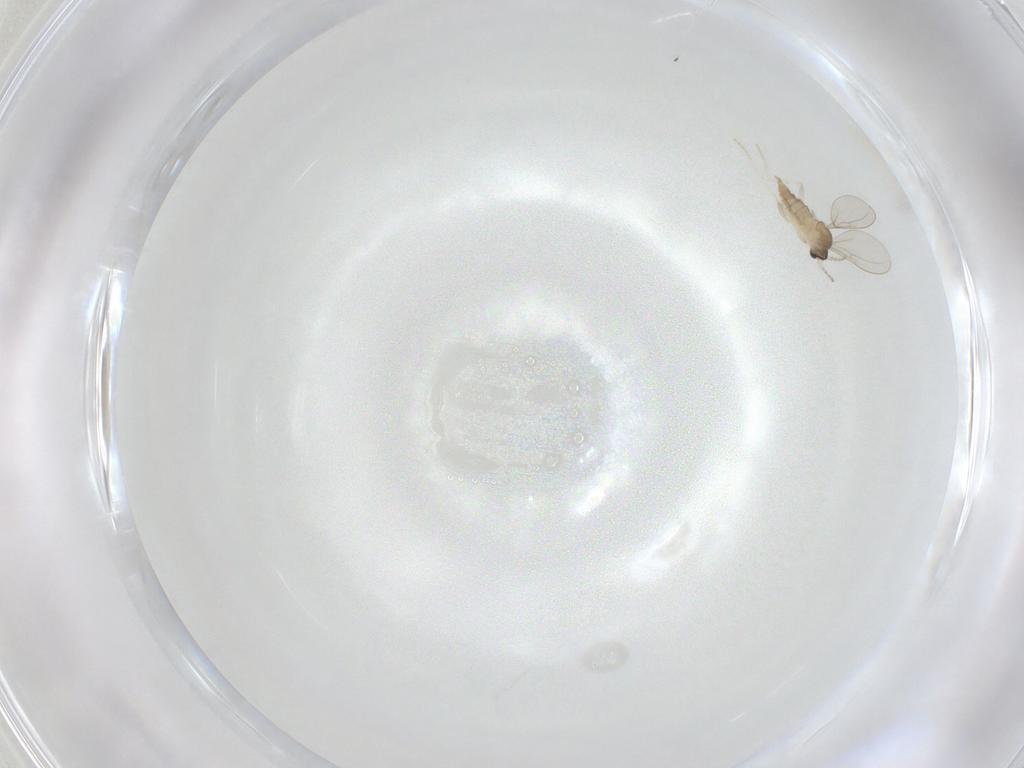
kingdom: Animalia
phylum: Arthropoda
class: Insecta
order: Diptera
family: Cecidomyiidae
